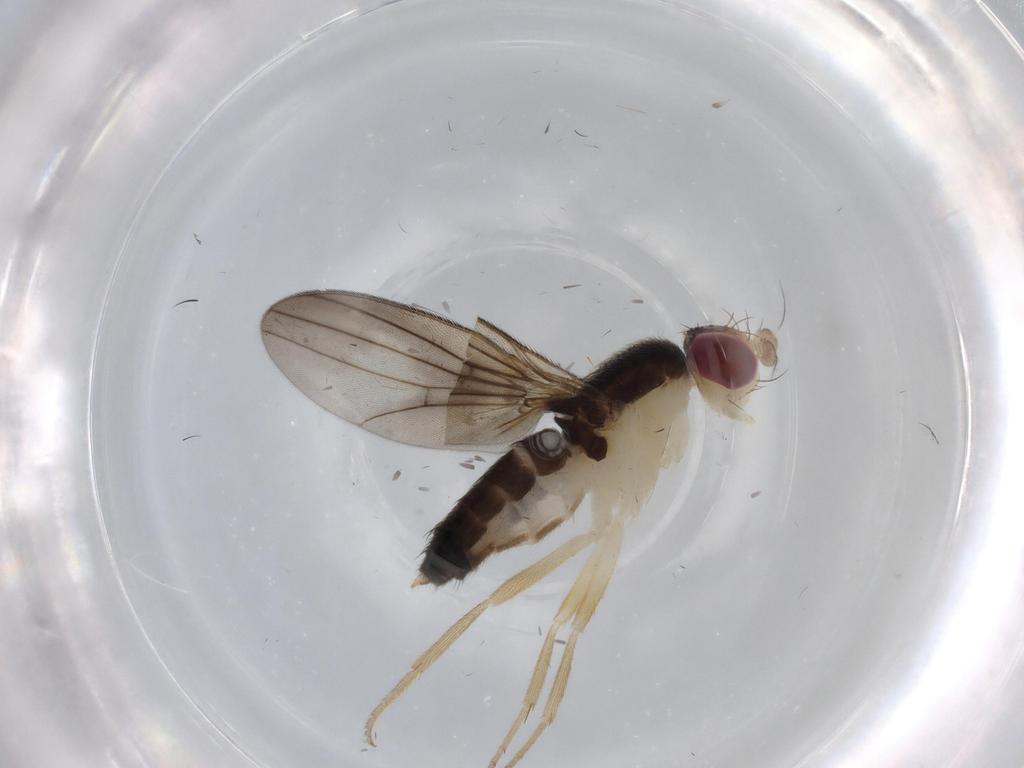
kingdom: Animalia
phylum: Arthropoda
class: Insecta
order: Diptera
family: Clusiidae
